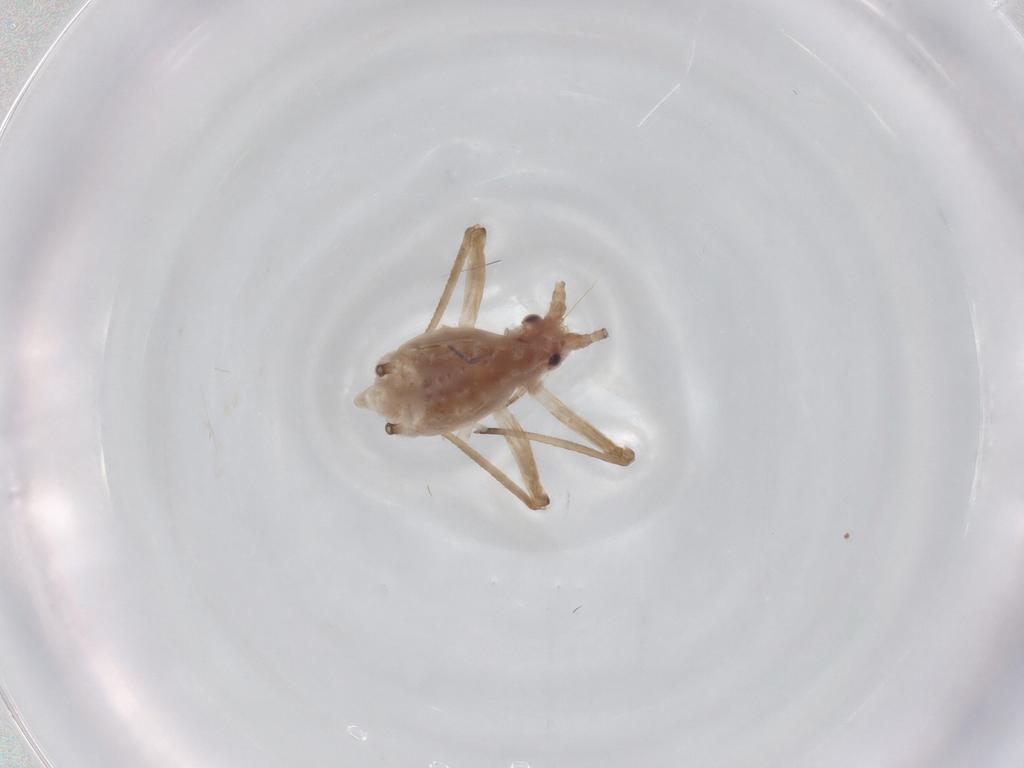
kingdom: Animalia
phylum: Arthropoda
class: Insecta
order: Hemiptera
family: Aphididae
